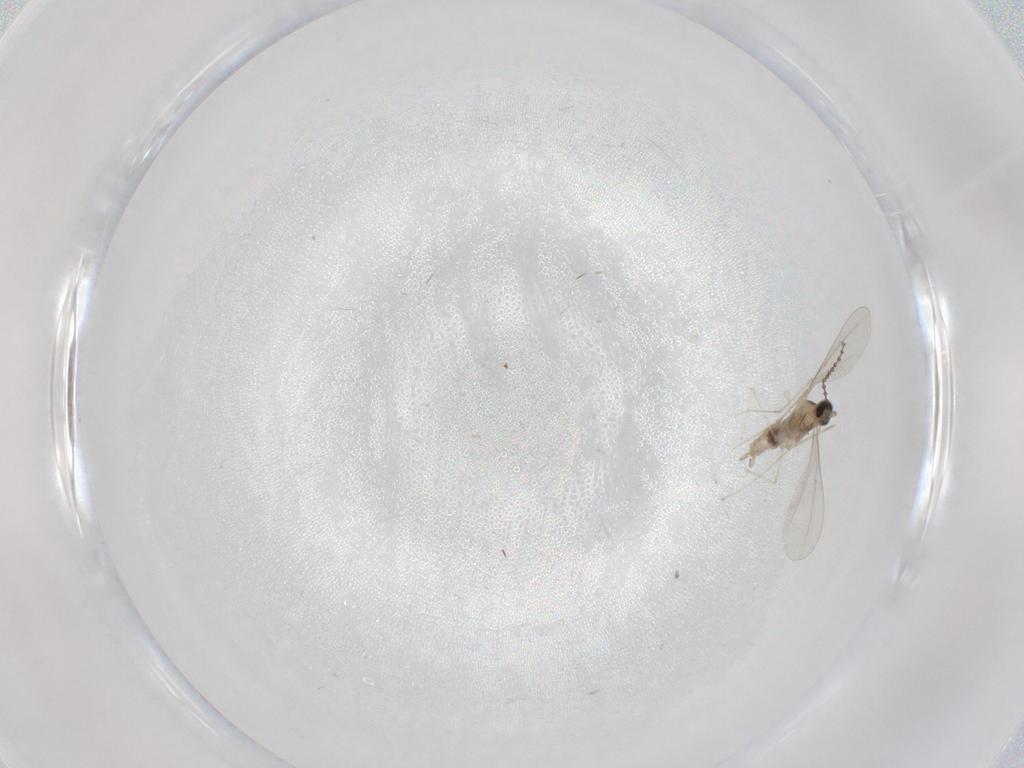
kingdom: Animalia
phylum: Arthropoda
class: Insecta
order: Diptera
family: Cecidomyiidae
